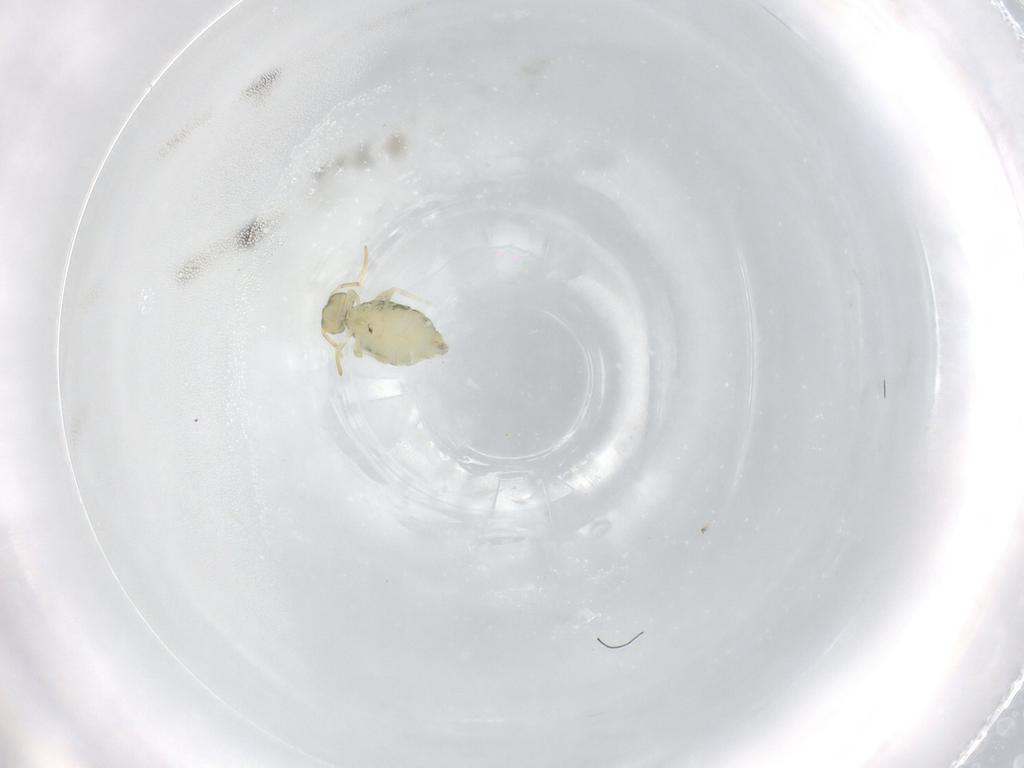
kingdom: Animalia
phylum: Arthropoda
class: Collembola
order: Symphypleona
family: Katiannidae
